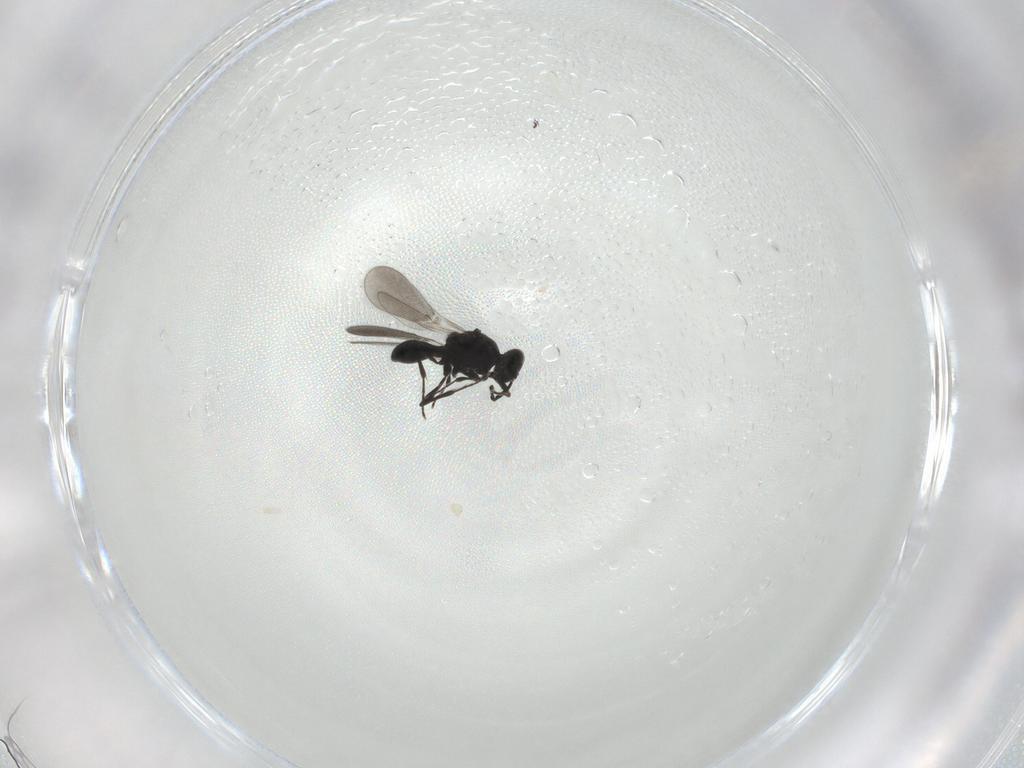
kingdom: Animalia
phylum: Arthropoda
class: Insecta
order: Hymenoptera
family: Platygastridae
